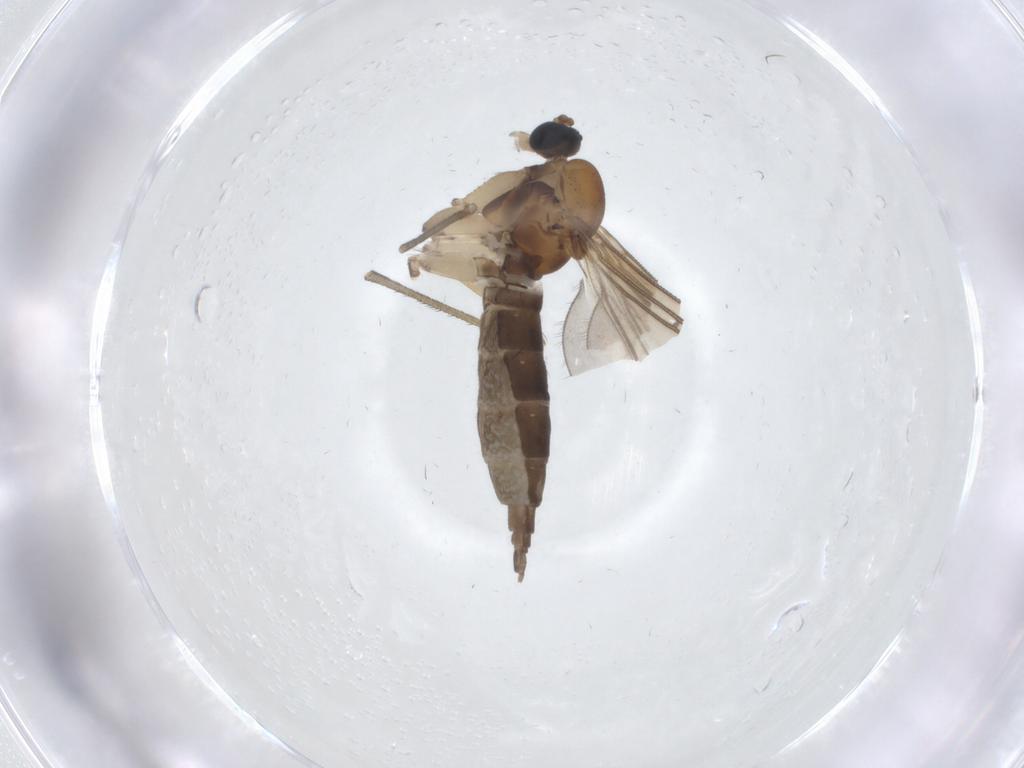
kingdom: Animalia
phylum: Arthropoda
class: Insecta
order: Diptera
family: Sciaridae
